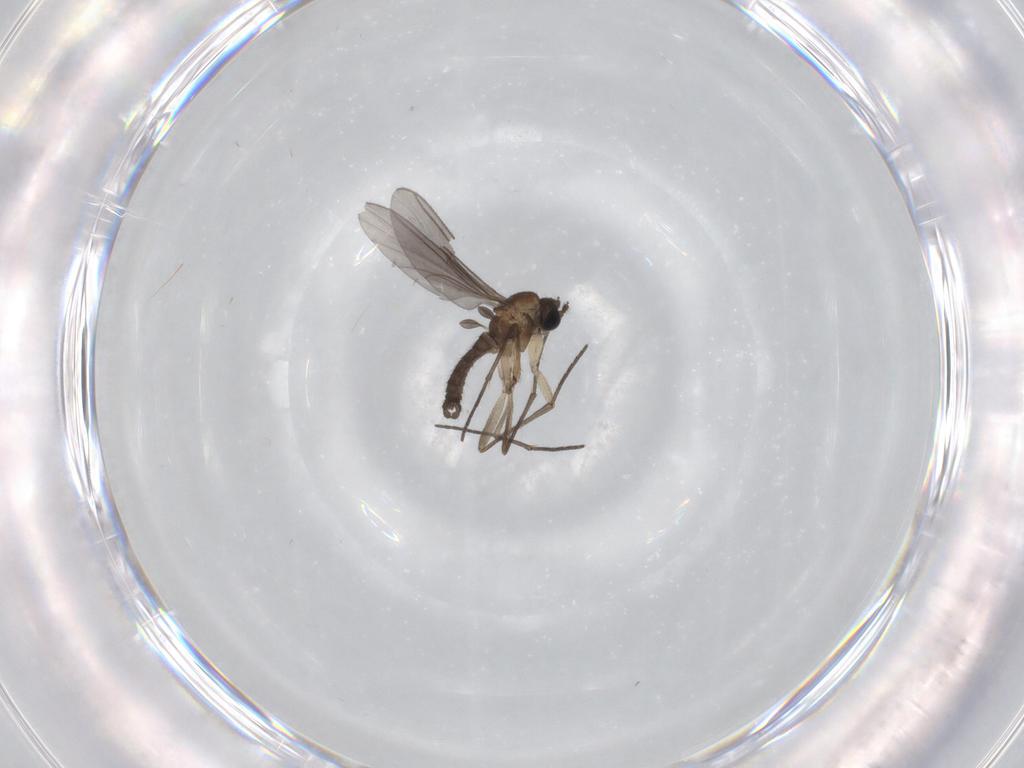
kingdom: Animalia
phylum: Arthropoda
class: Insecta
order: Diptera
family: Sciaridae
